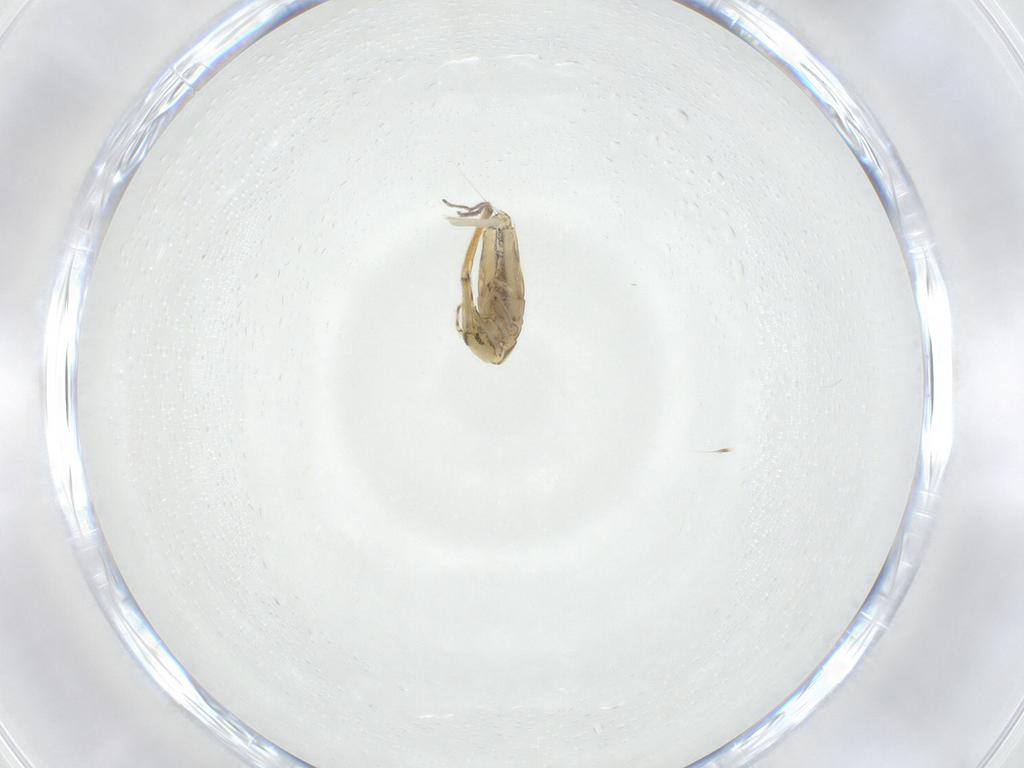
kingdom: Animalia
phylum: Arthropoda
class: Collembola
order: Entomobryomorpha
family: Paronellidae
